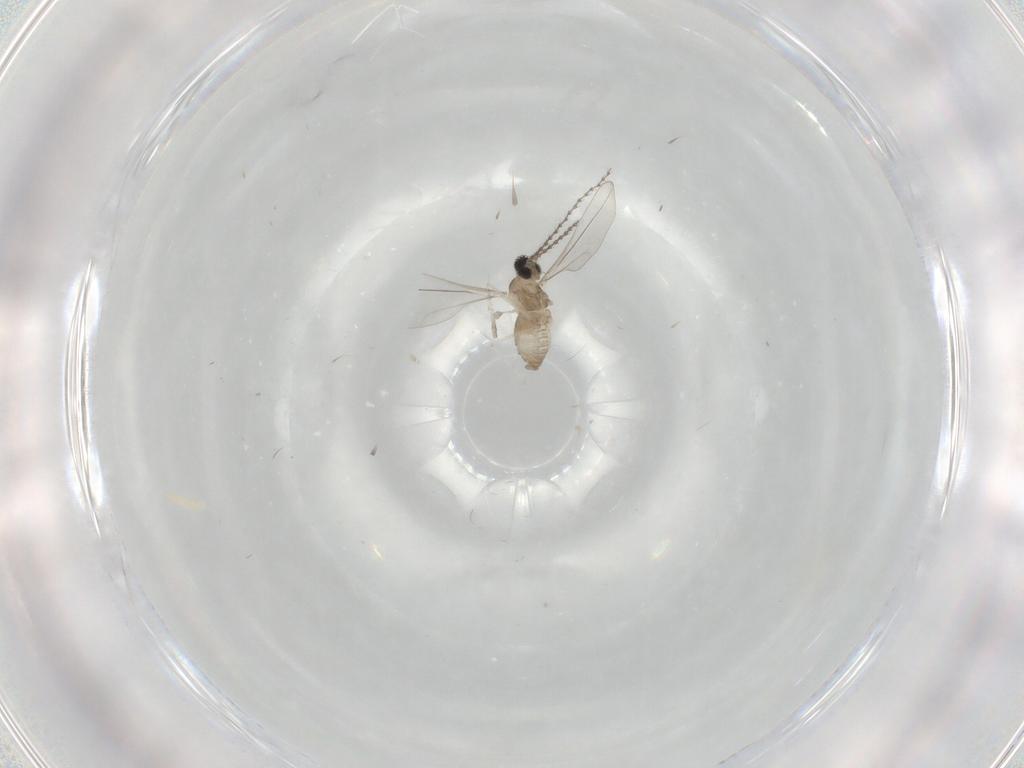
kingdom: Animalia
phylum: Arthropoda
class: Insecta
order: Diptera
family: Cecidomyiidae
